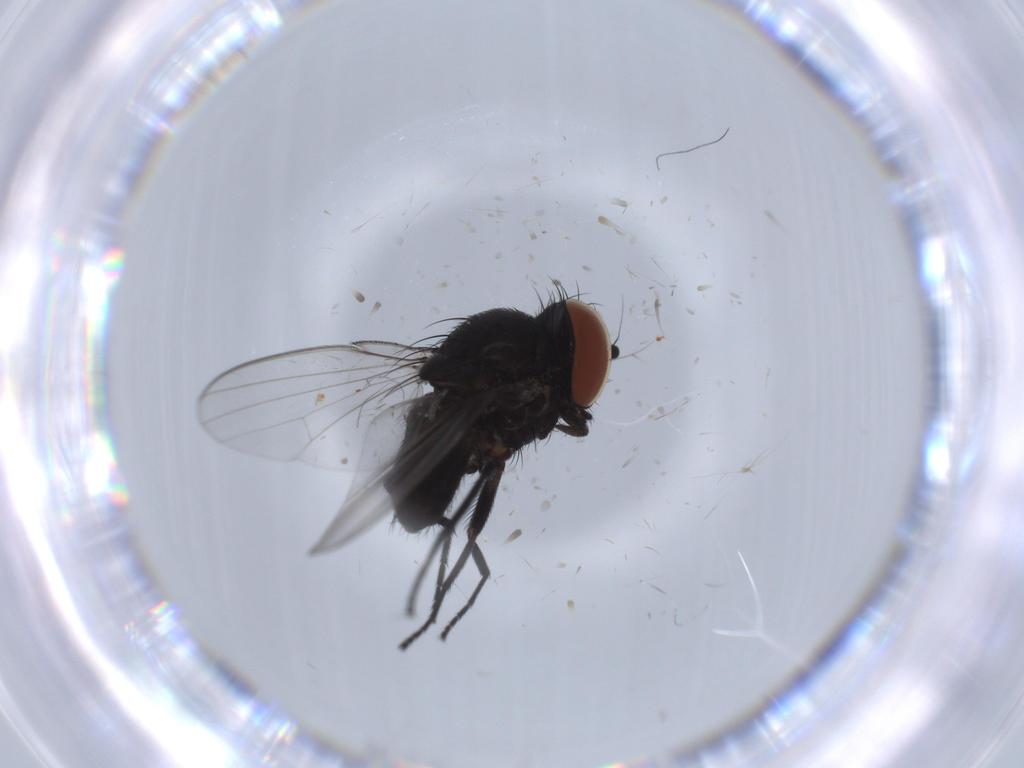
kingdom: Animalia
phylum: Arthropoda
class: Insecta
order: Diptera
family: Milichiidae
